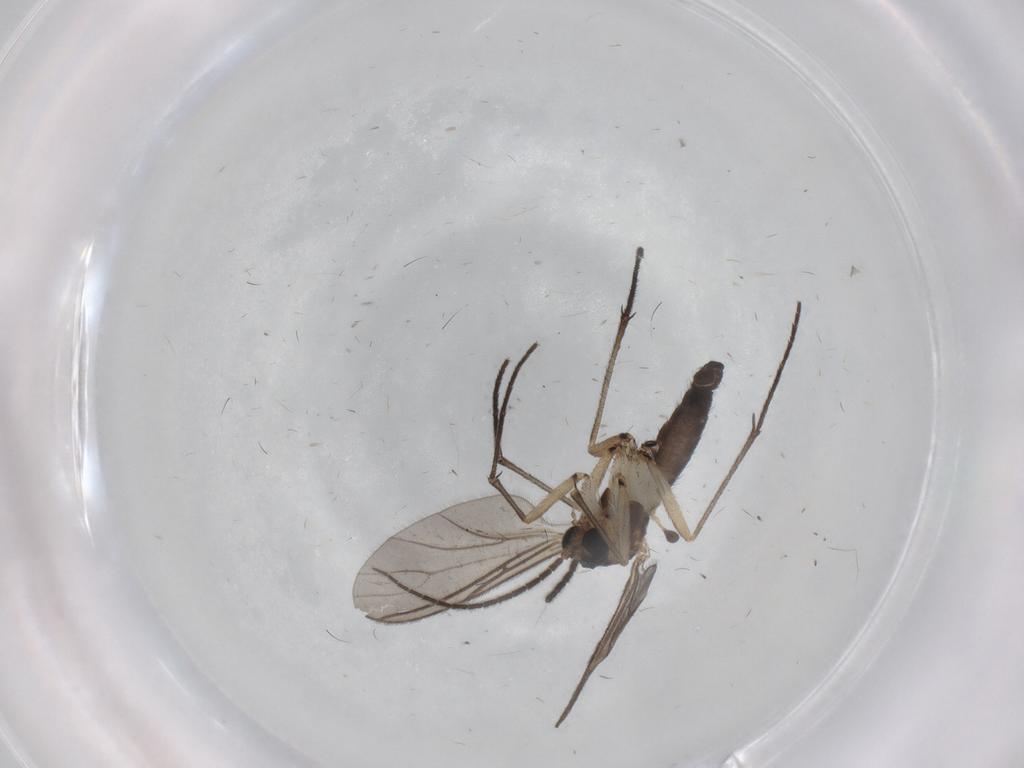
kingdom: Animalia
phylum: Arthropoda
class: Insecta
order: Diptera
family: Sciaridae
